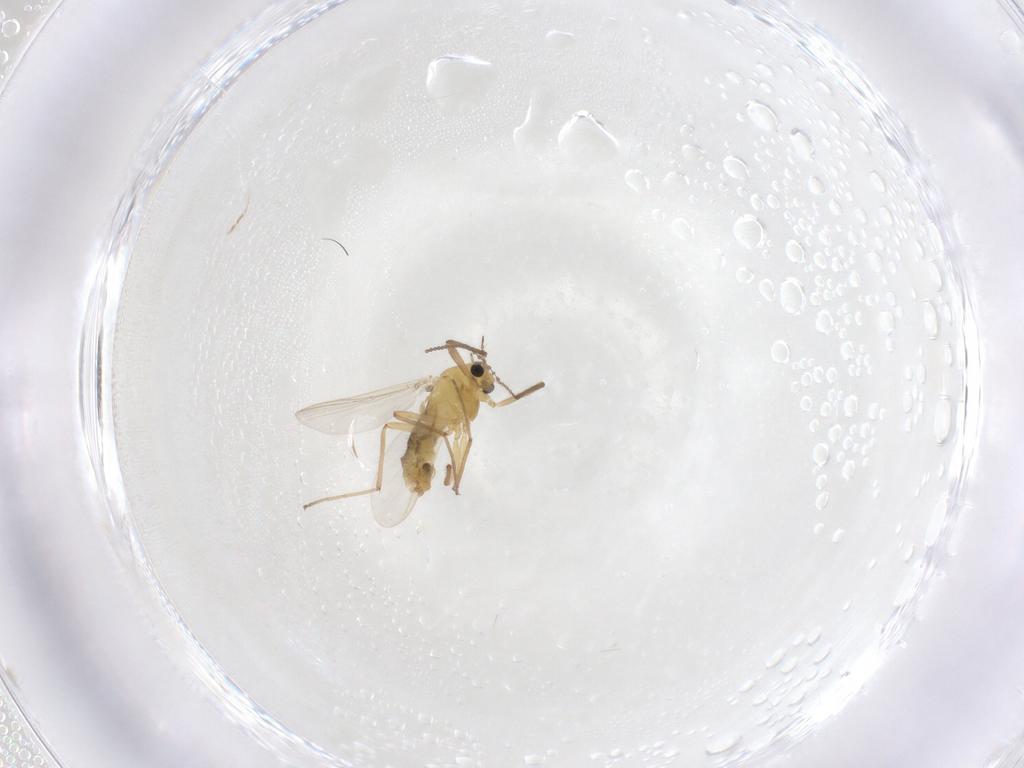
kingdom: Animalia
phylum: Arthropoda
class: Insecta
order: Diptera
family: Chironomidae
